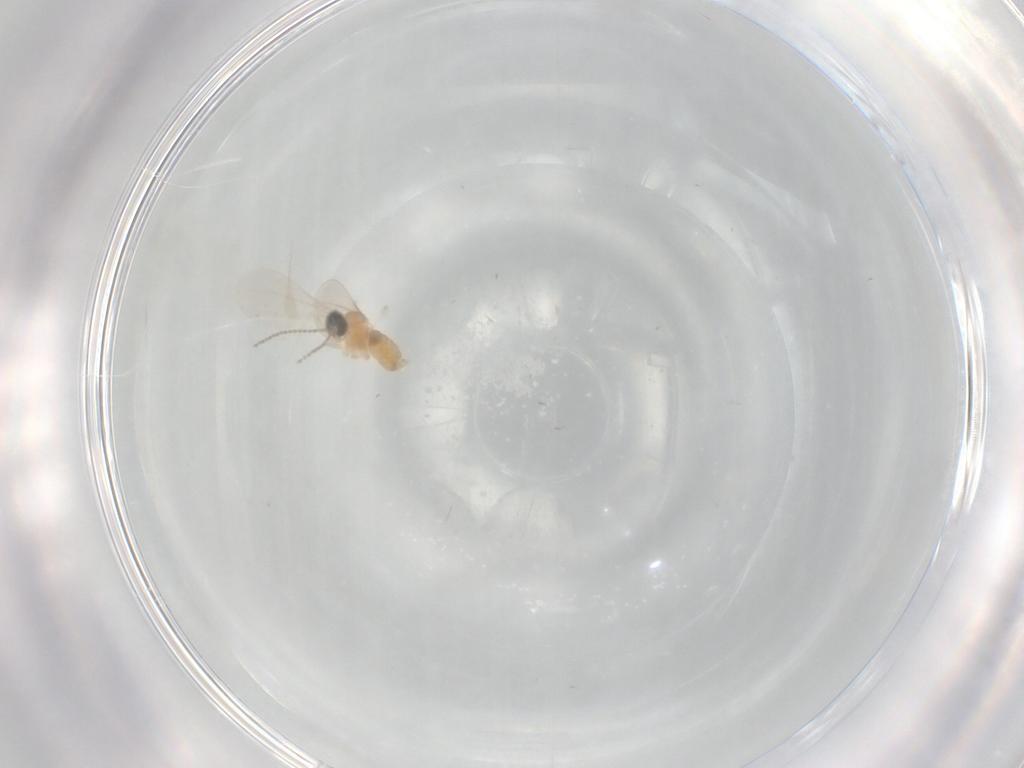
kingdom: Animalia
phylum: Arthropoda
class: Insecta
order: Diptera
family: Cecidomyiidae
